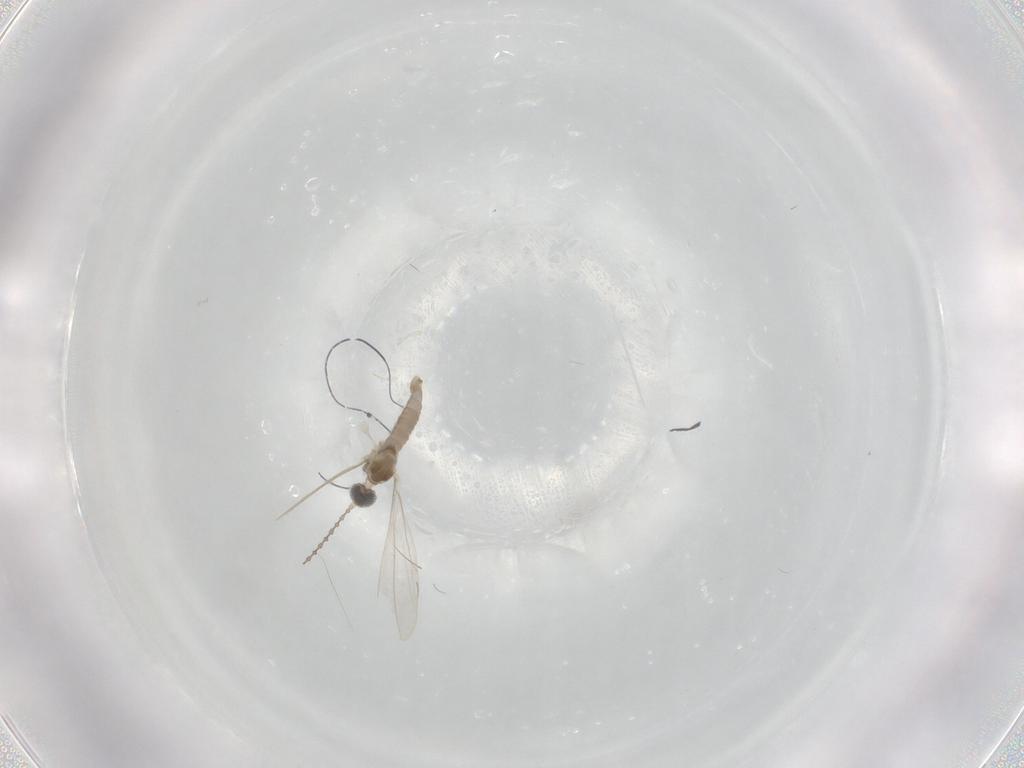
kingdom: Animalia
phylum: Arthropoda
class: Insecta
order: Diptera
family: Cecidomyiidae
